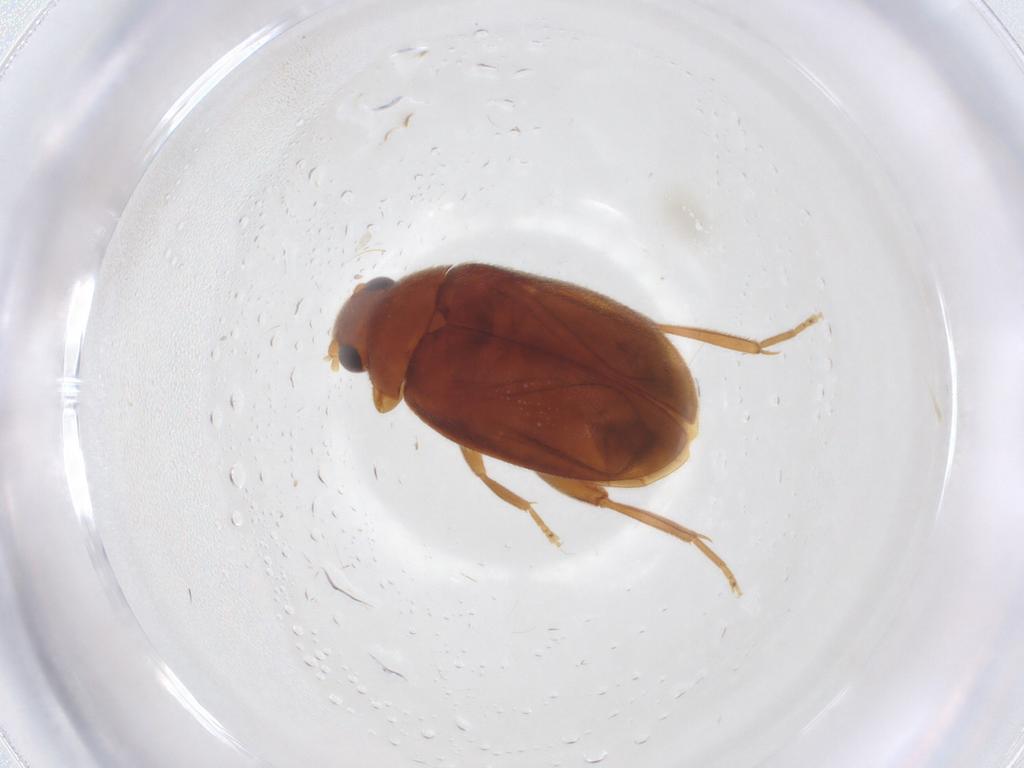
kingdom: Animalia
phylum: Arthropoda
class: Insecta
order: Coleoptera
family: Scirtidae
